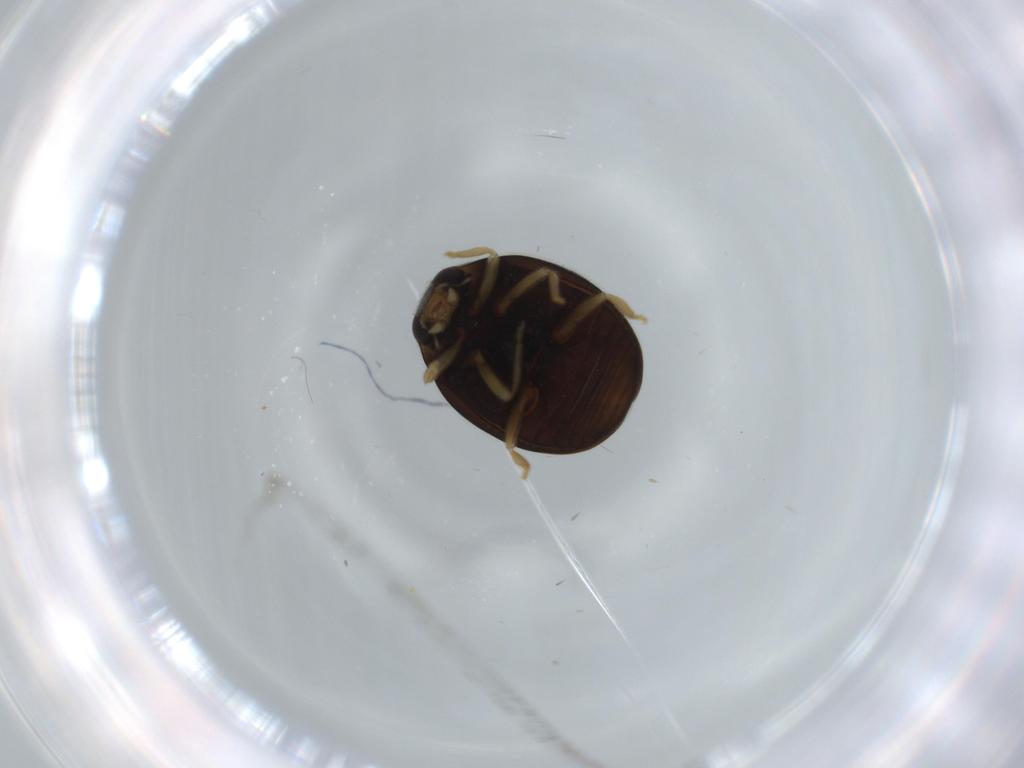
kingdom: Animalia
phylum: Arthropoda
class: Insecta
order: Coleoptera
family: Coccinellidae
